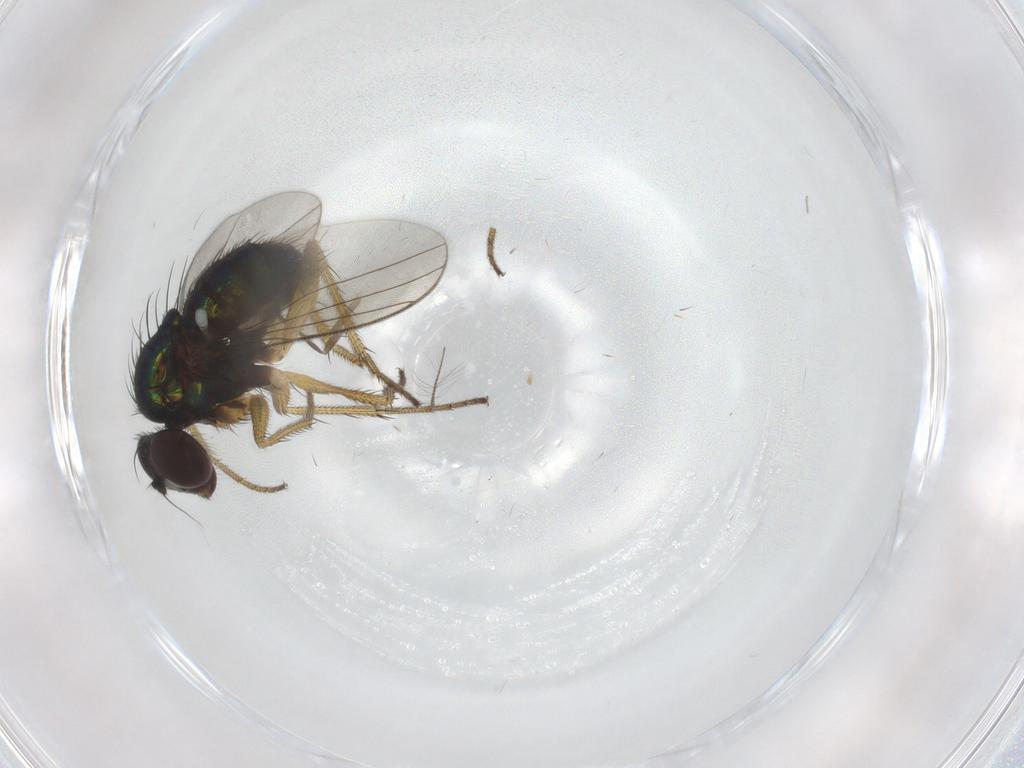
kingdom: Animalia
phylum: Arthropoda
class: Insecta
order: Diptera
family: Dolichopodidae
